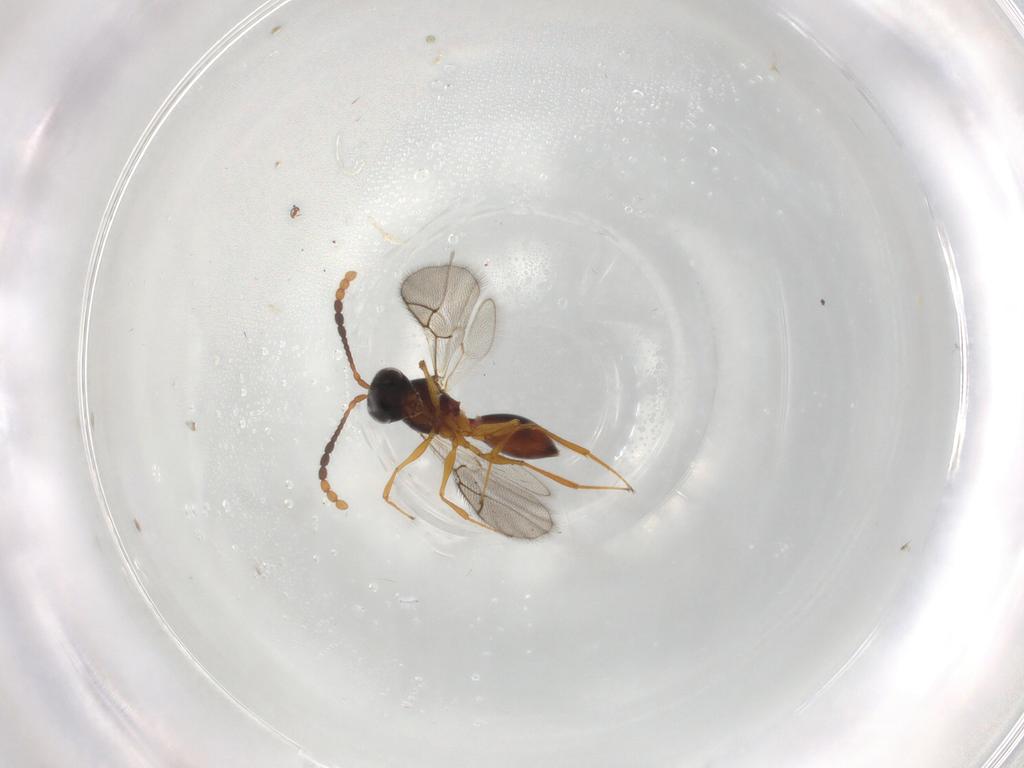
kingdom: Animalia
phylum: Arthropoda
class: Insecta
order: Hymenoptera
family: Figitidae
